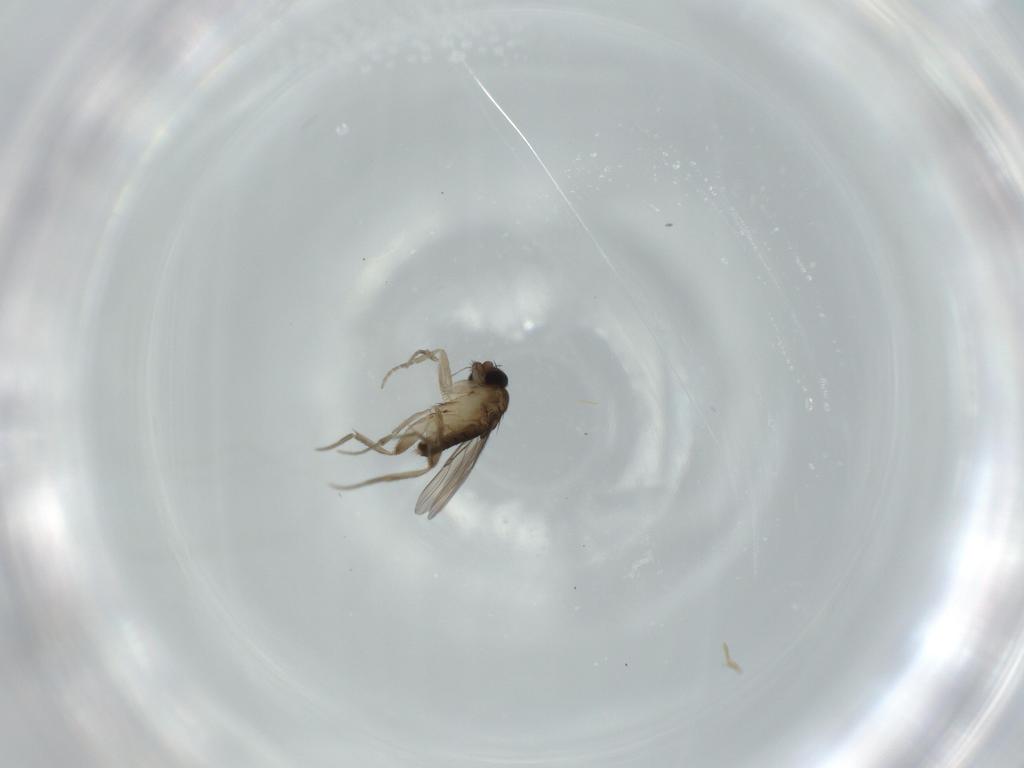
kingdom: Animalia
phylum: Arthropoda
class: Insecta
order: Diptera
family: Phoridae
